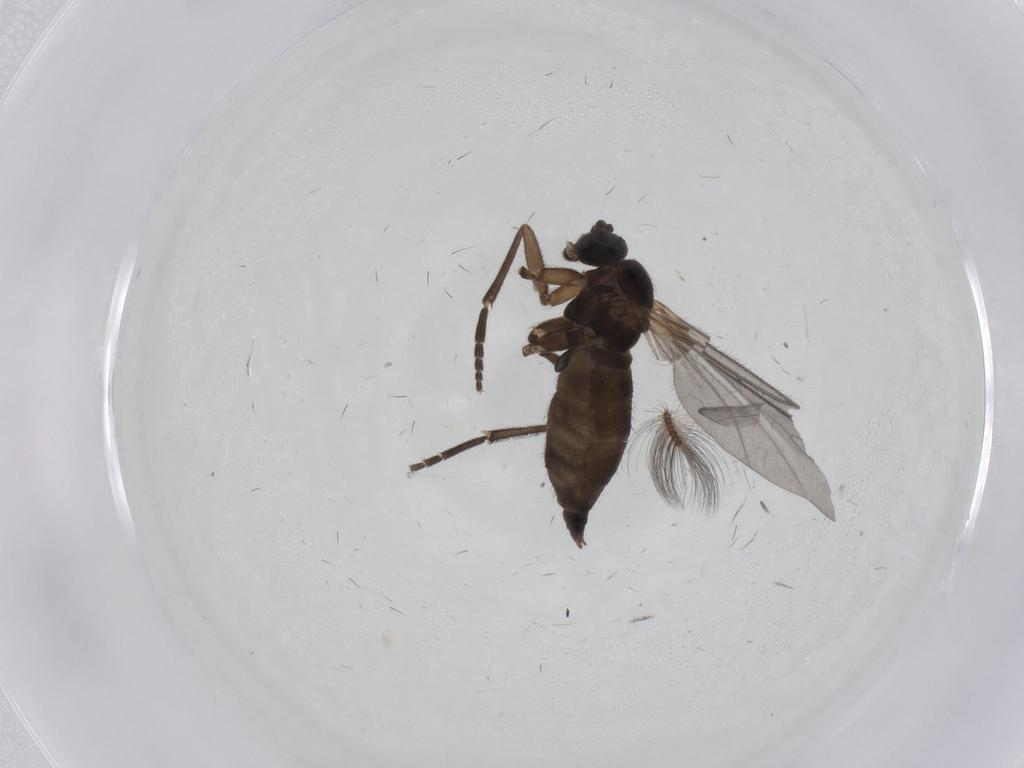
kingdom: Animalia
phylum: Arthropoda
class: Insecta
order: Diptera
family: Sciaridae
